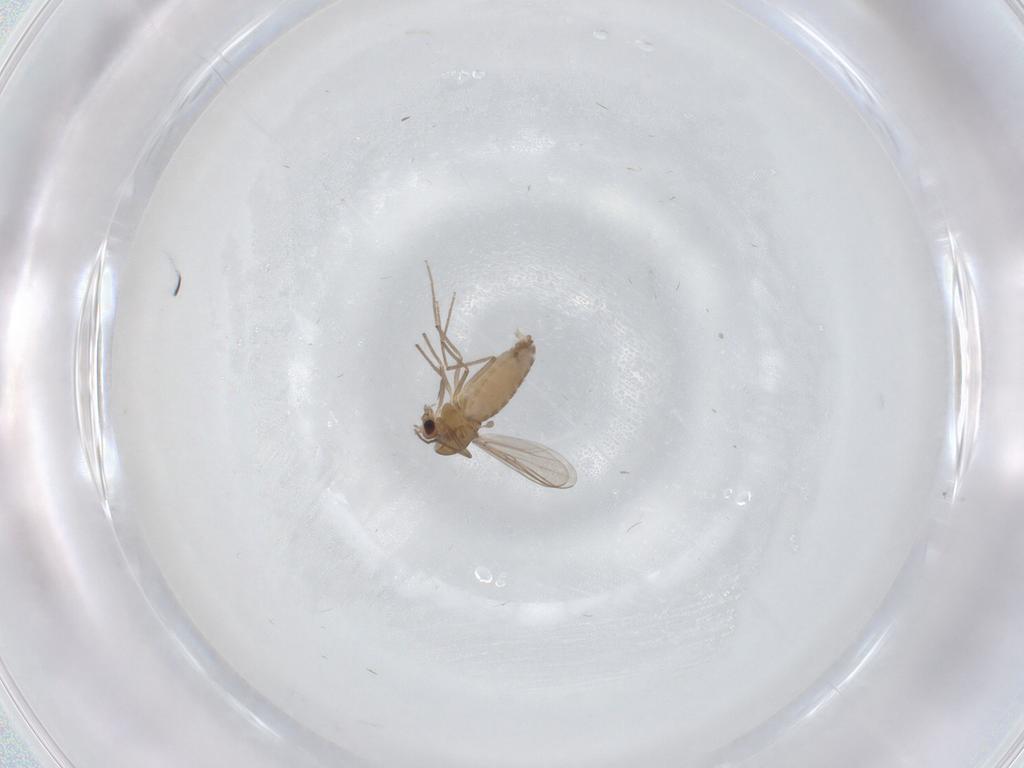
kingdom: Animalia
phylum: Arthropoda
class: Insecta
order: Diptera
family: Chironomidae
